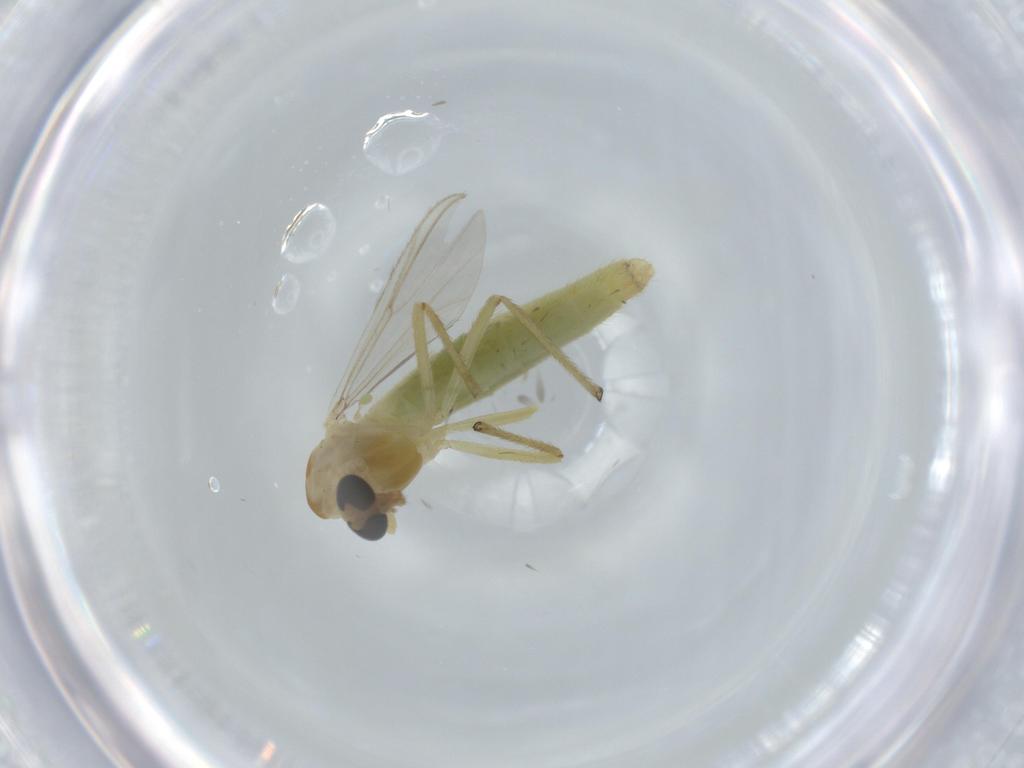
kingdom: Animalia
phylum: Arthropoda
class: Insecta
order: Diptera
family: Chironomidae
